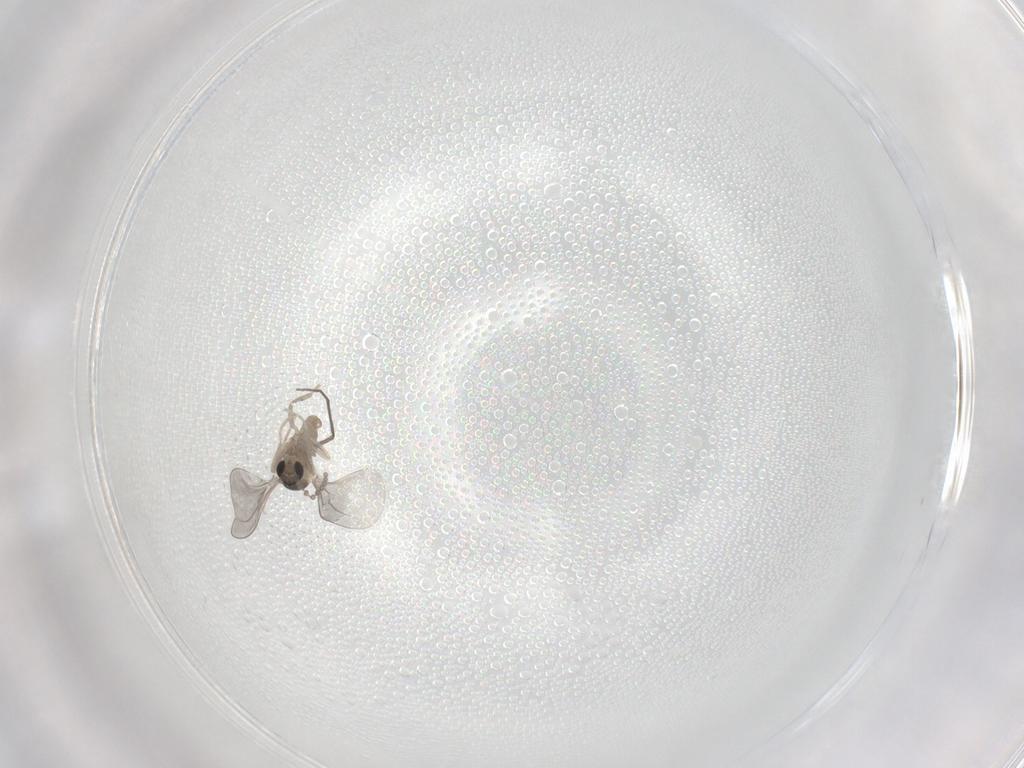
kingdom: Animalia
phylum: Arthropoda
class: Insecta
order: Diptera
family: Cecidomyiidae
